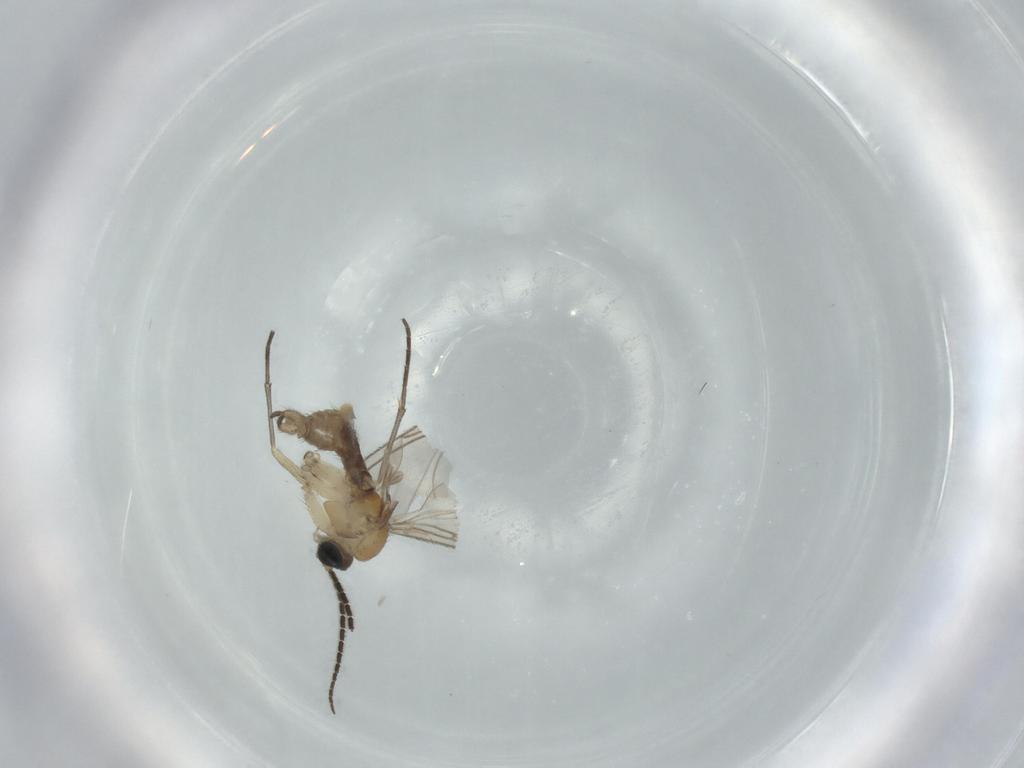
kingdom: Animalia
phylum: Arthropoda
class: Insecta
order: Diptera
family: Sciaridae
